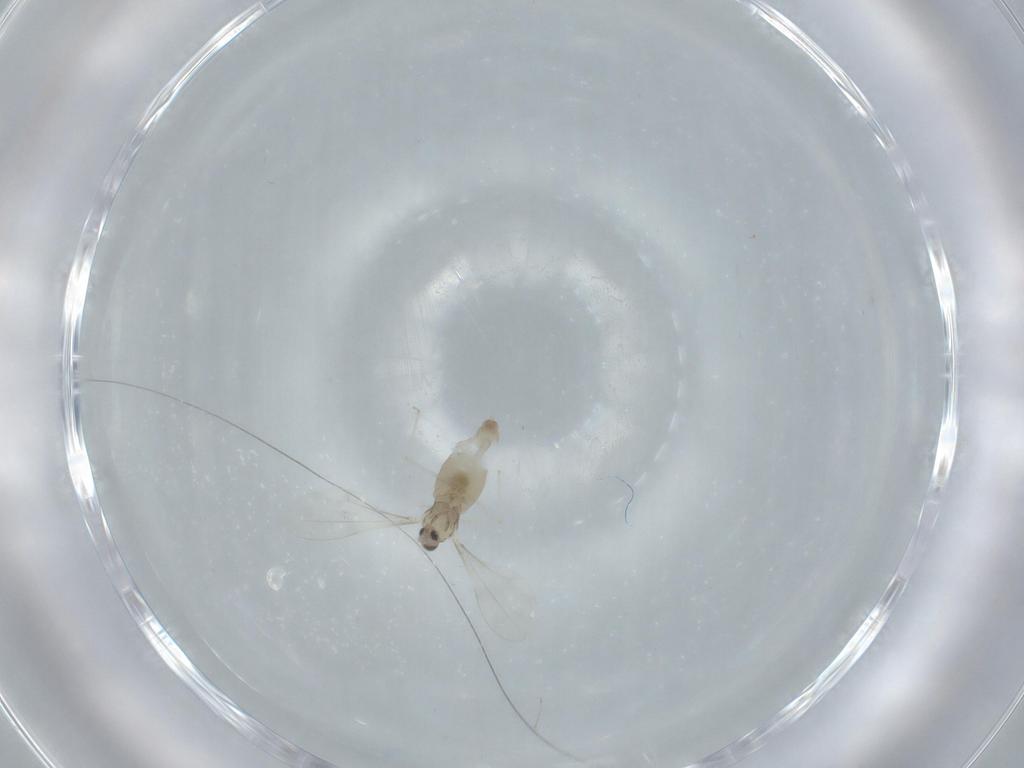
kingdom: Animalia
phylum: Arthropoda
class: Insecta
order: Diptera
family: Cecidomyiidae
